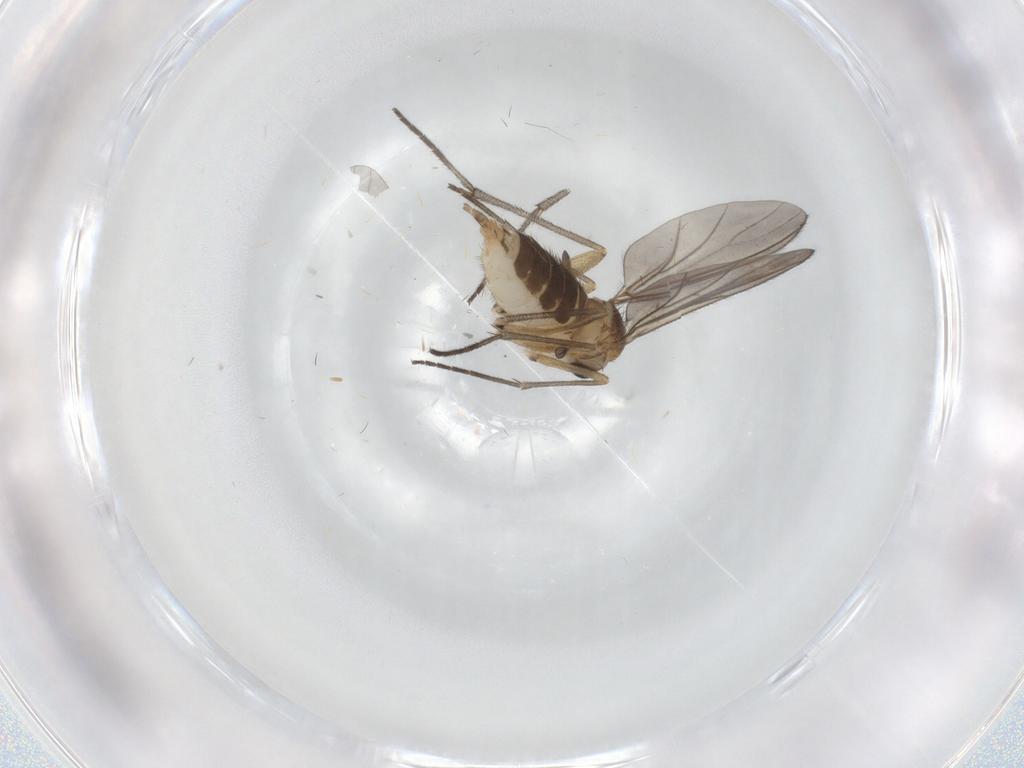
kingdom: Animalia
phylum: Arthropoda
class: Insecta
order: Diptera
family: Sciaridae
